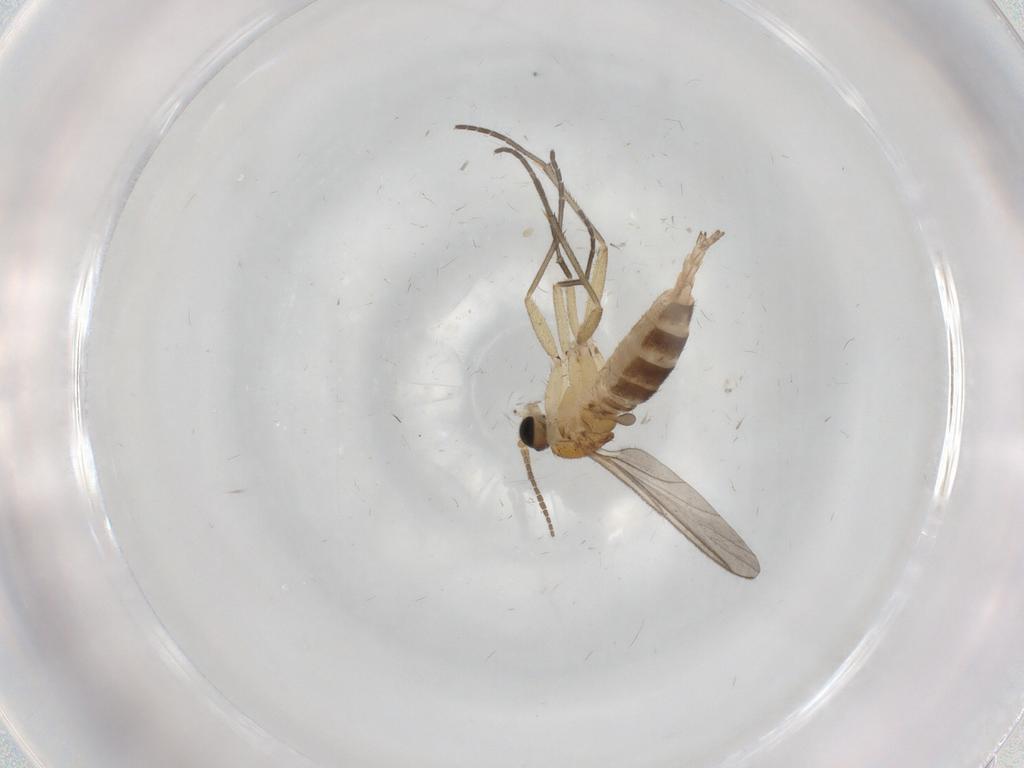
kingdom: Animalia
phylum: Arthropoda
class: Insecta
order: Diptera
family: Sciaridae
